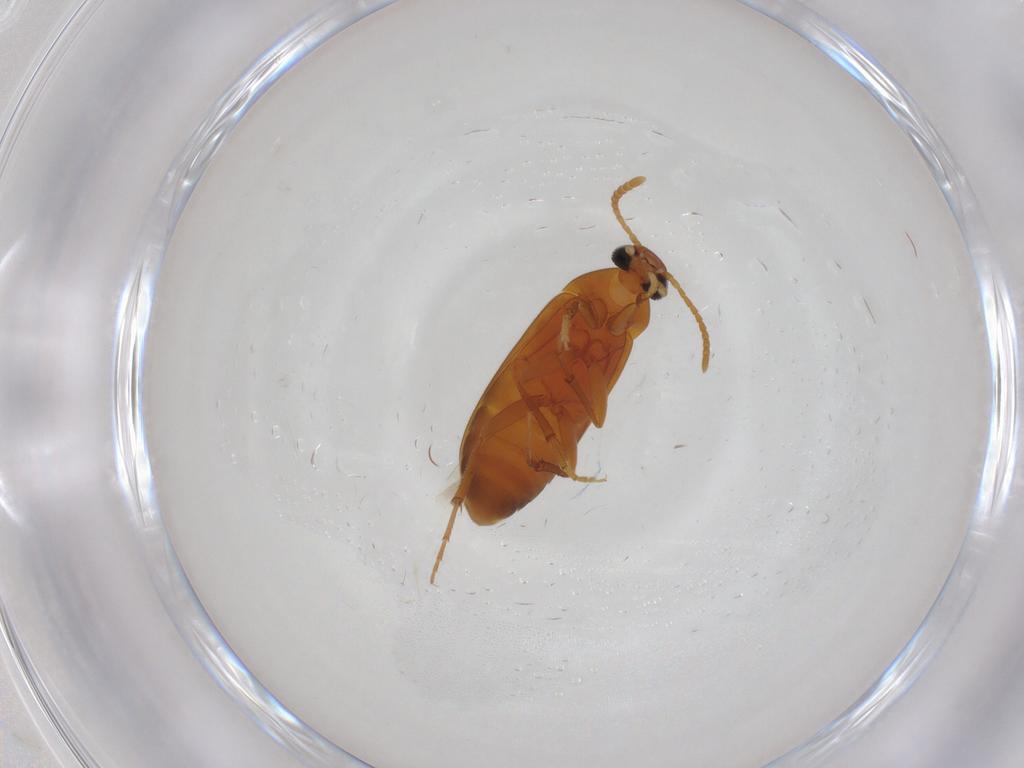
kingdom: Animalia
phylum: Arthropoda
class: Insecta
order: Coleoptera
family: Scraptiidae
